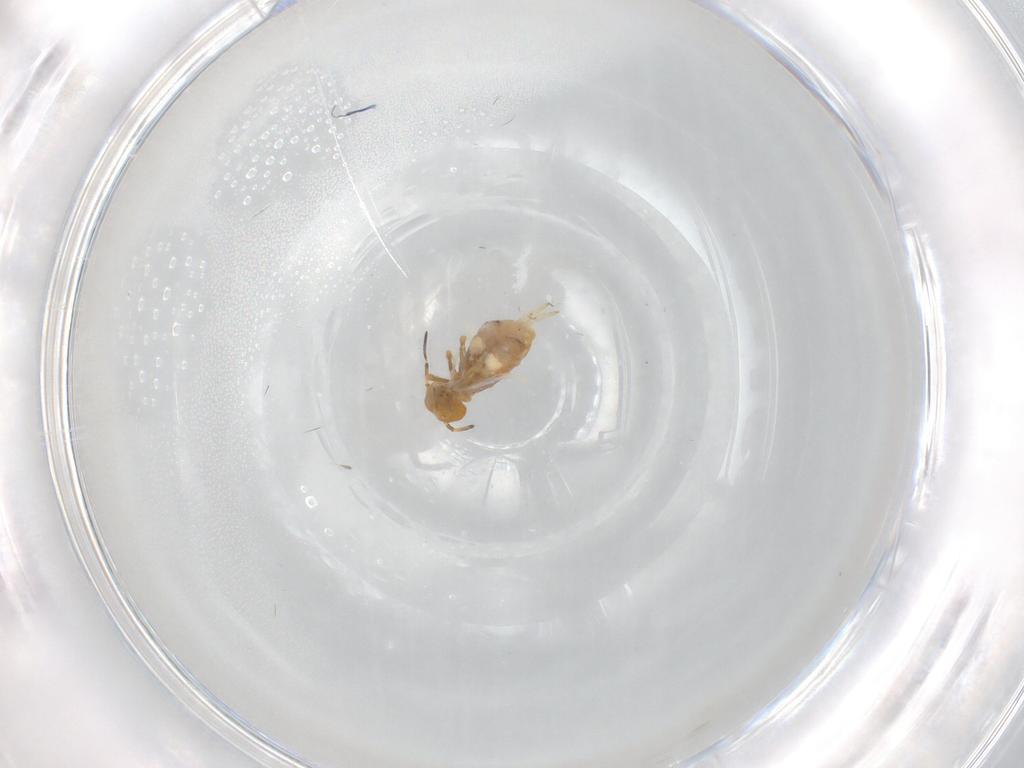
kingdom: Animalia
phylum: Arthropoda
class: Collembola
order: Symphypleona
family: Sminthuridae
